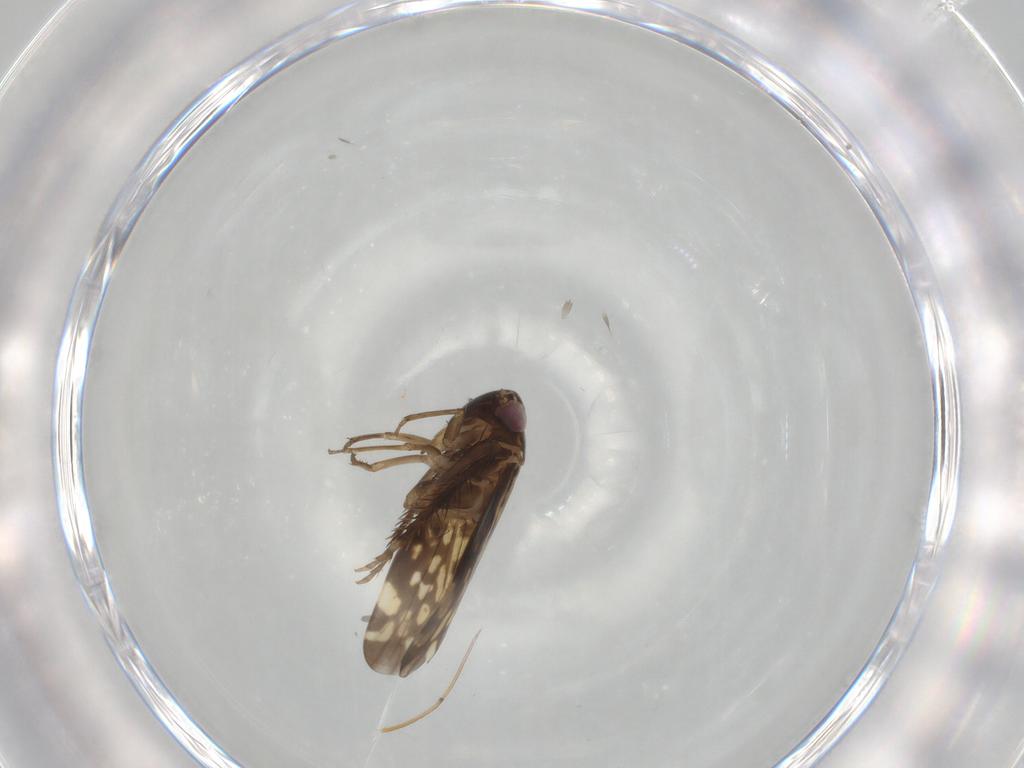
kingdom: Animalia
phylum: Arthropoda
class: Insecta
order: Hemiptera
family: Cicadellidae
